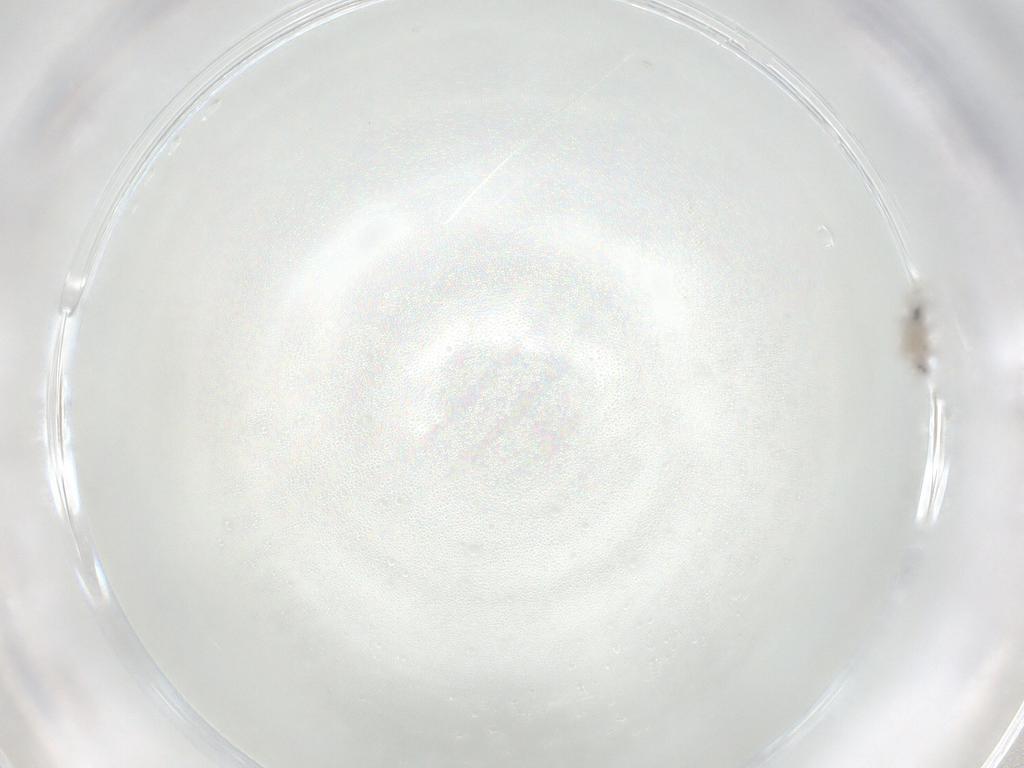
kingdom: Animalia
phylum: Arthropoda
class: Insecta
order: Diptera
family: Cecidomyiidae
